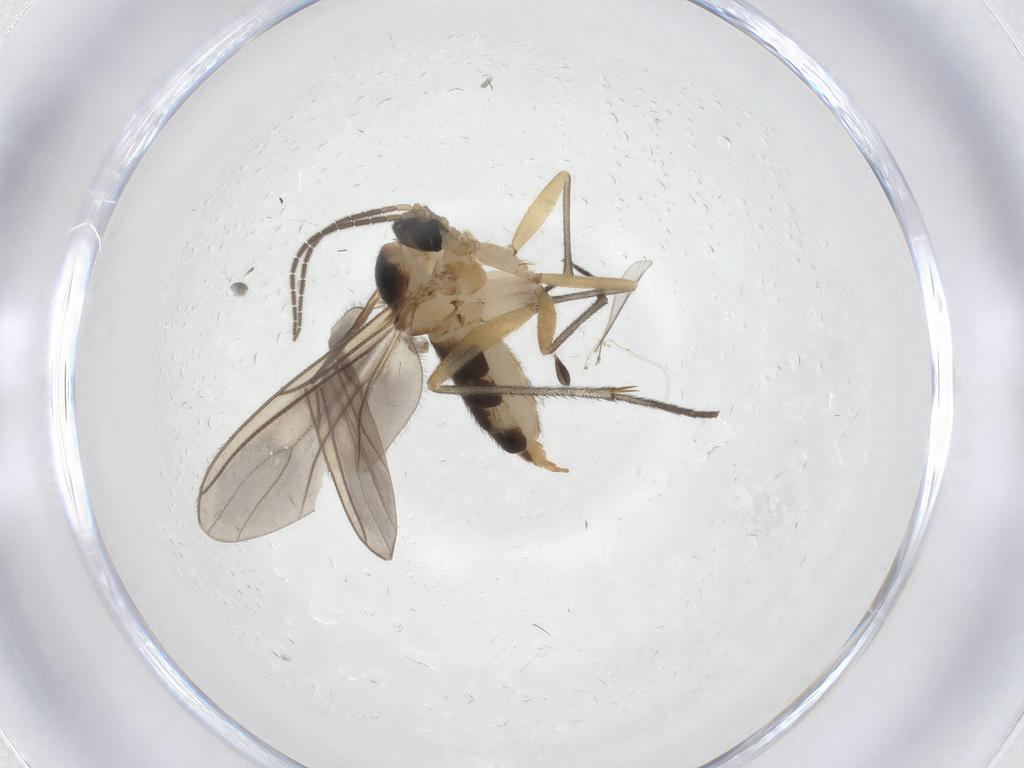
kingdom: Animalia
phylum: Arthropoda
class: Insecta
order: Diptera
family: Sciaridae
